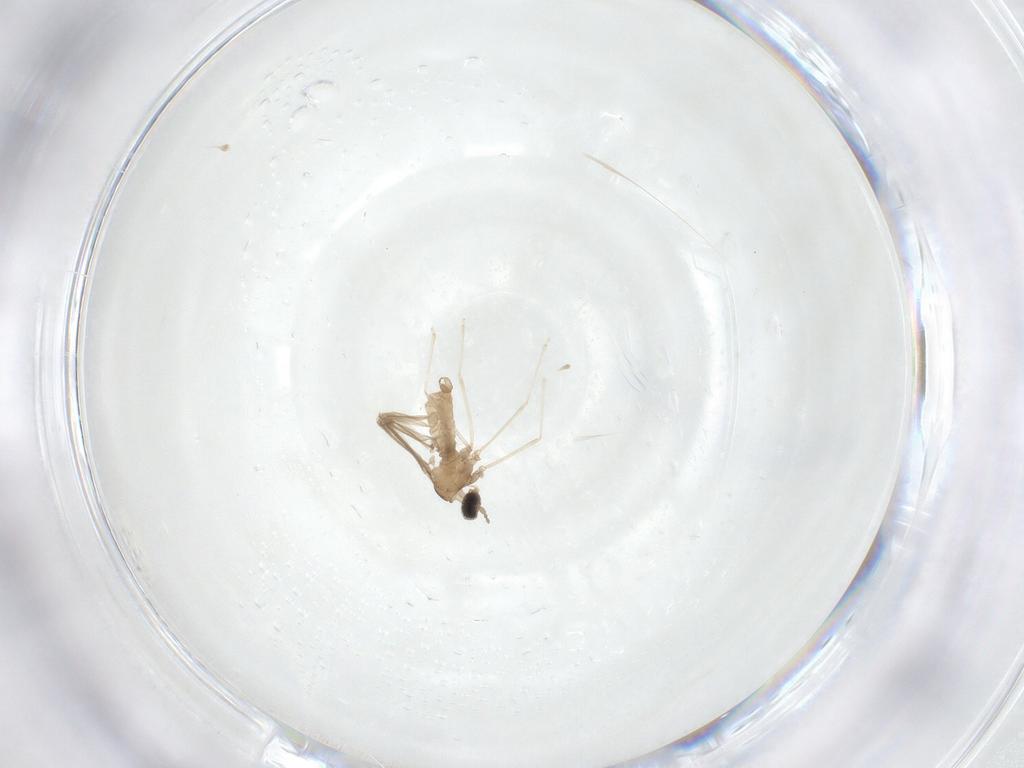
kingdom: Animalia
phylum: Arthropoda
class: Insecta
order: Diptera
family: Cecidomyiidae
